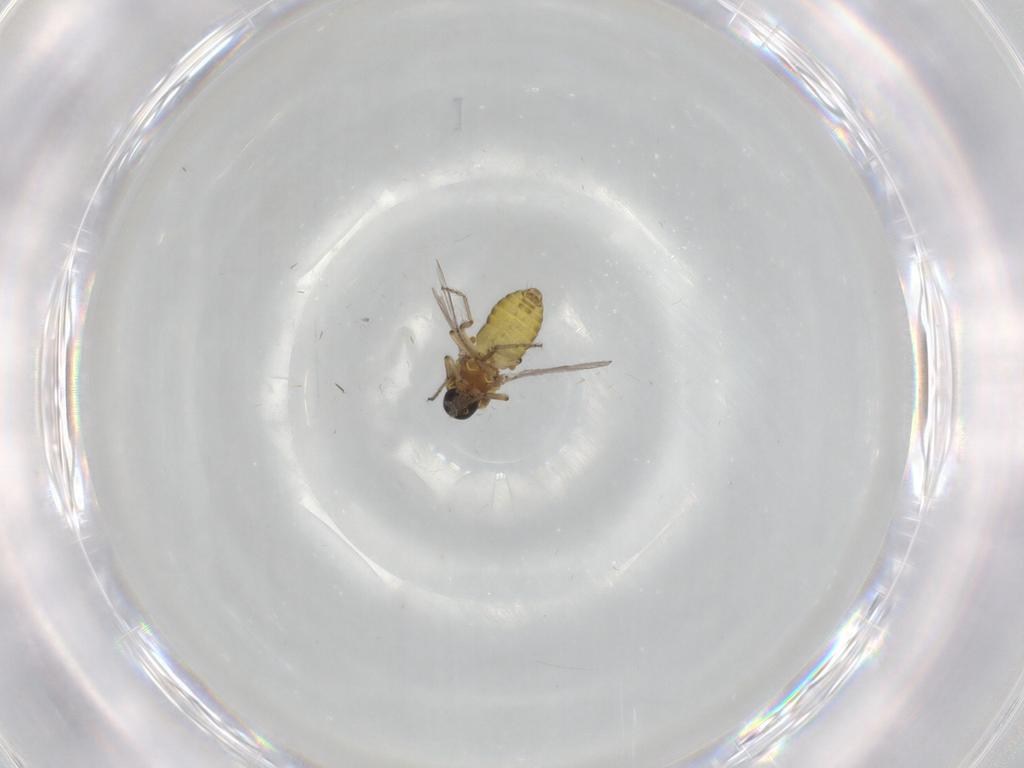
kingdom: Animalia
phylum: Arthropoda
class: Insecta
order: Diptera
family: Ceratopogonidae
